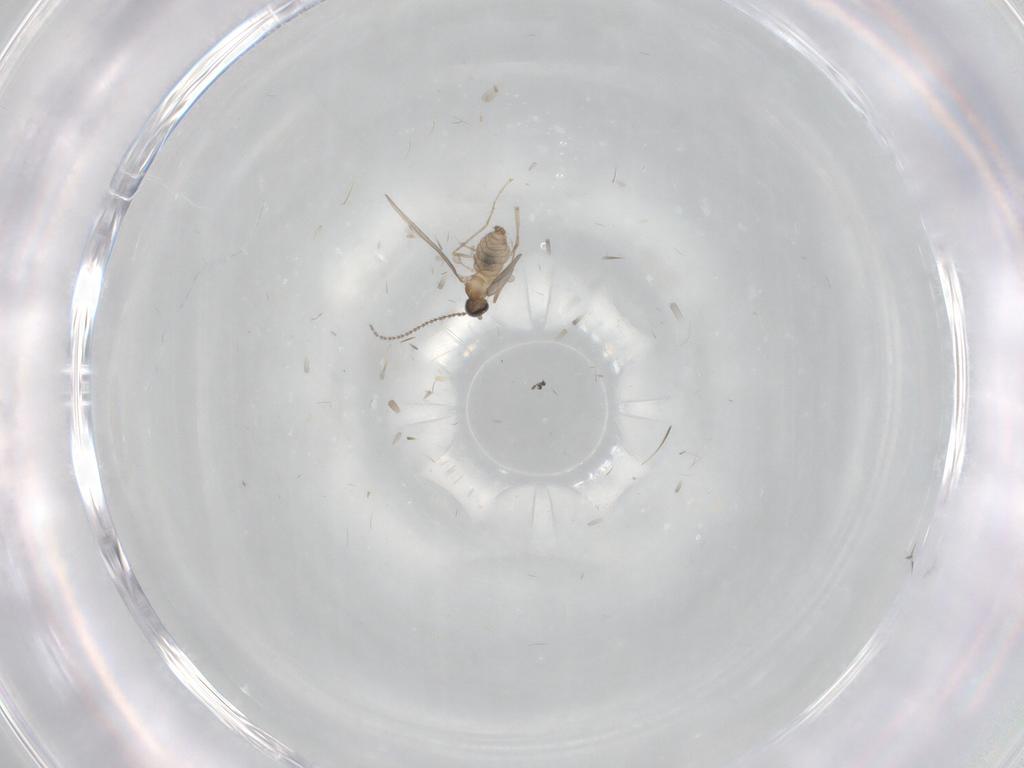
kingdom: Animalia
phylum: Arthropoda
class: Insecta
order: Diptera
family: Cecidomyiidae
